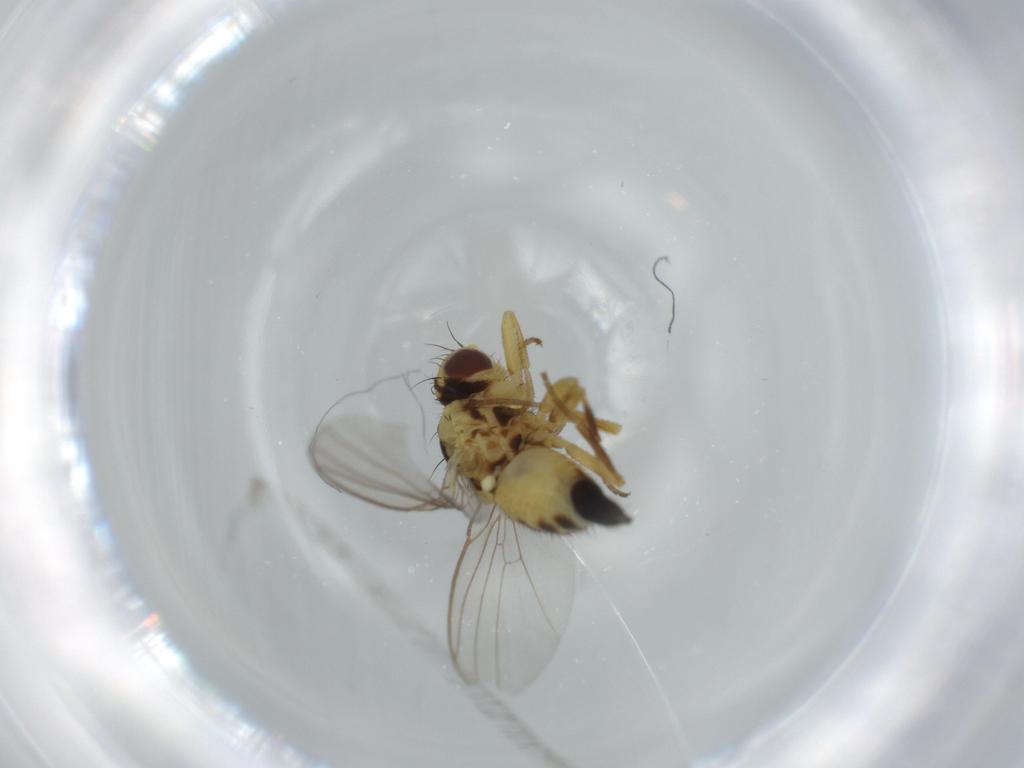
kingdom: Animalia
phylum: Arthropoda
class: Insecta
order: Diptera
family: Agromyzidae
